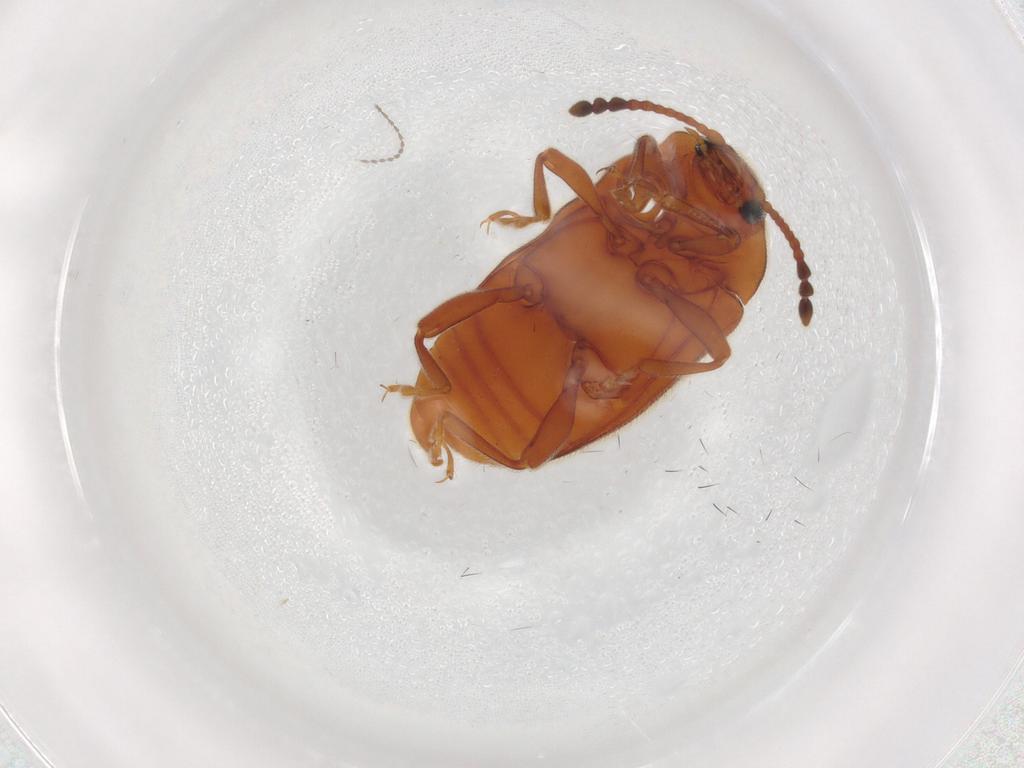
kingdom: Animalia
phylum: Arthropoda
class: Insecta
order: Coleoptera
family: Endomychidae
